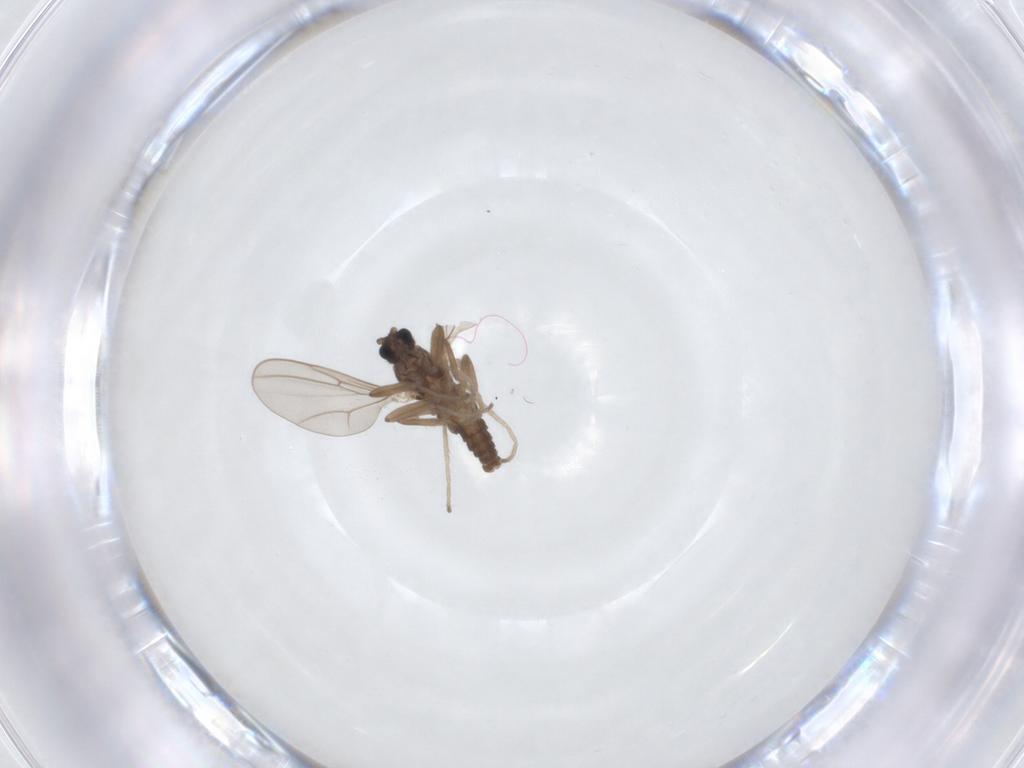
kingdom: Animalia
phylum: Arthropoda
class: Insecta
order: Diptera
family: Cecidomyiidae
